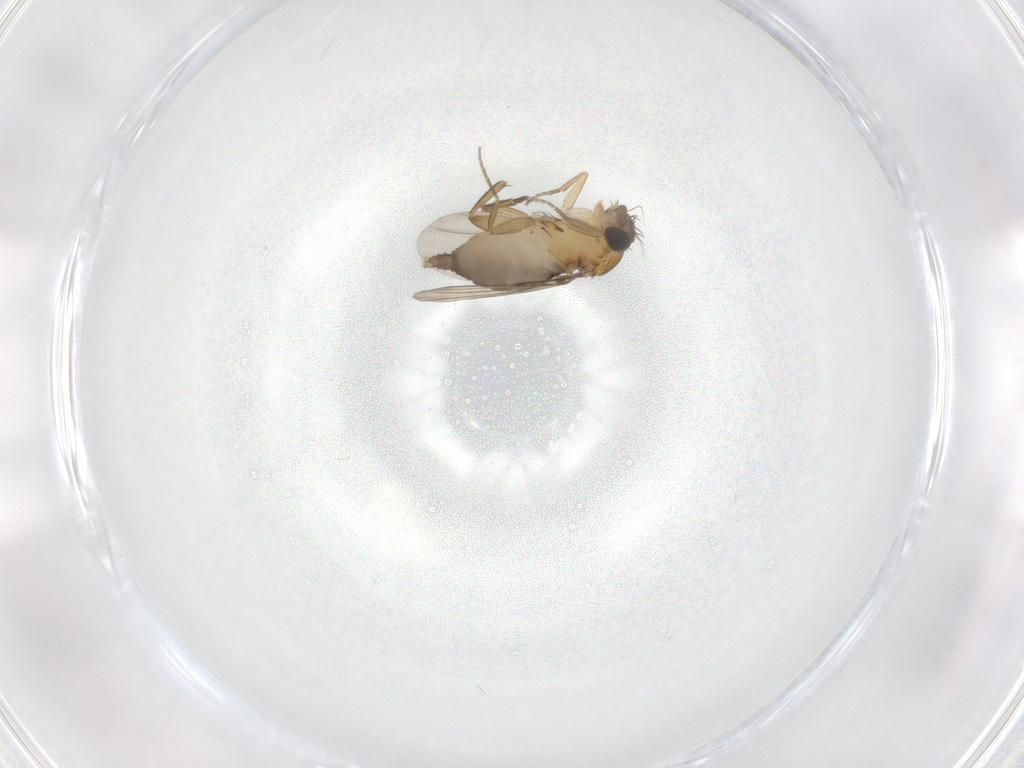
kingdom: Animalia
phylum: Arthropoda
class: Insecta
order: Diptera
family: Phoridae
